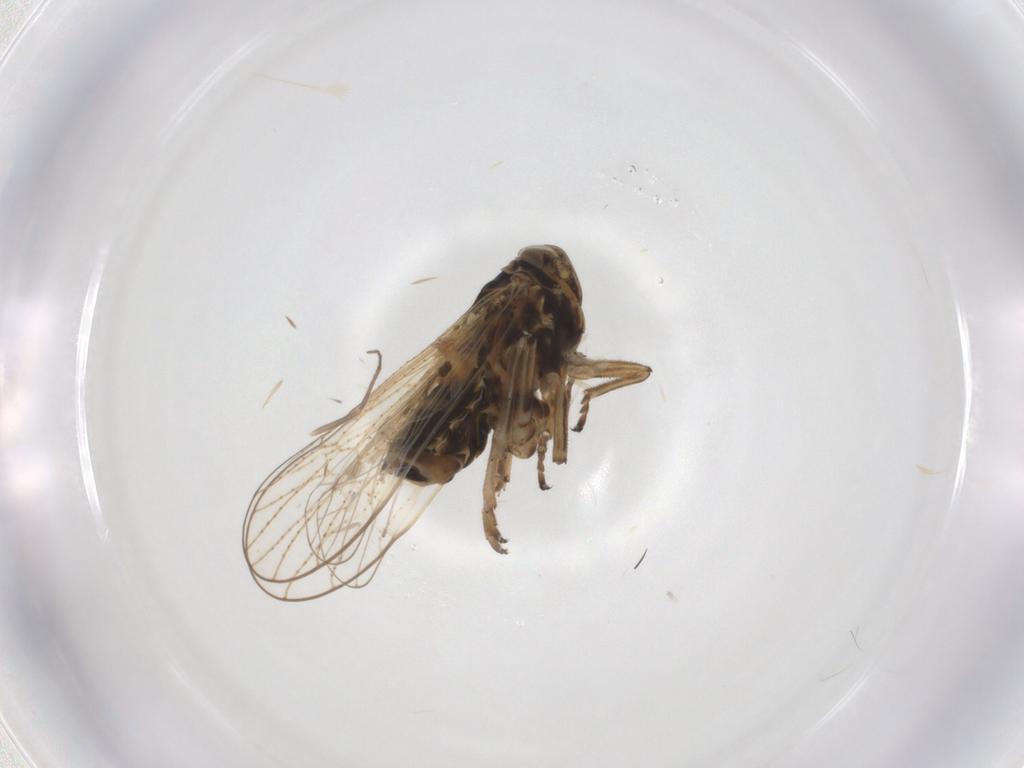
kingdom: Animalia
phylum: Arthropoda
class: Insecta
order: Hemiptera
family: Delphacidae
